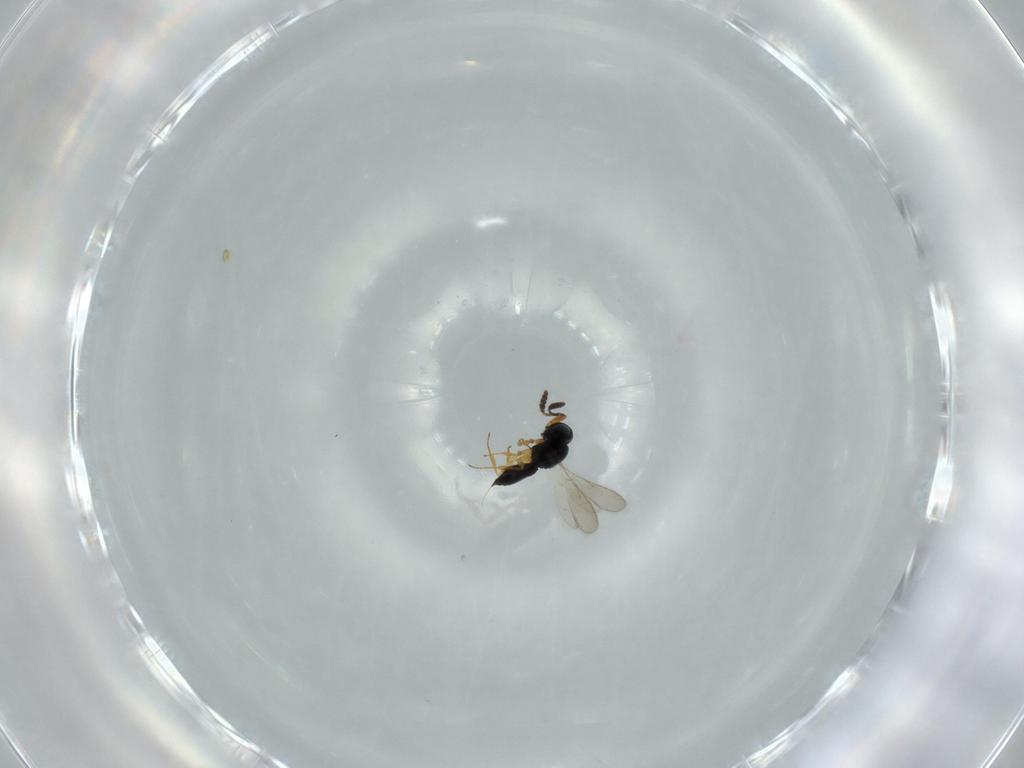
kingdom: Animalia
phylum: Arthropoda
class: Insecta
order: Hymenoptera
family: Scelionidae
